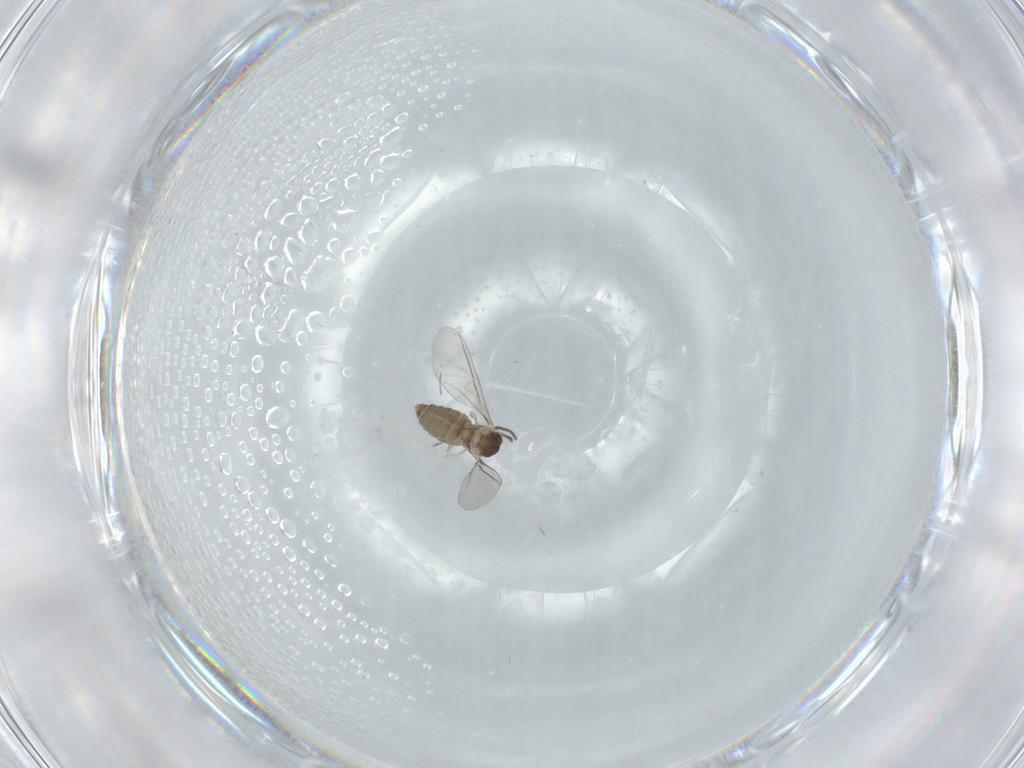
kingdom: Animalia
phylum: Arthropoda
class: Insecta
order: Diptera
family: Cecidomyiidae
